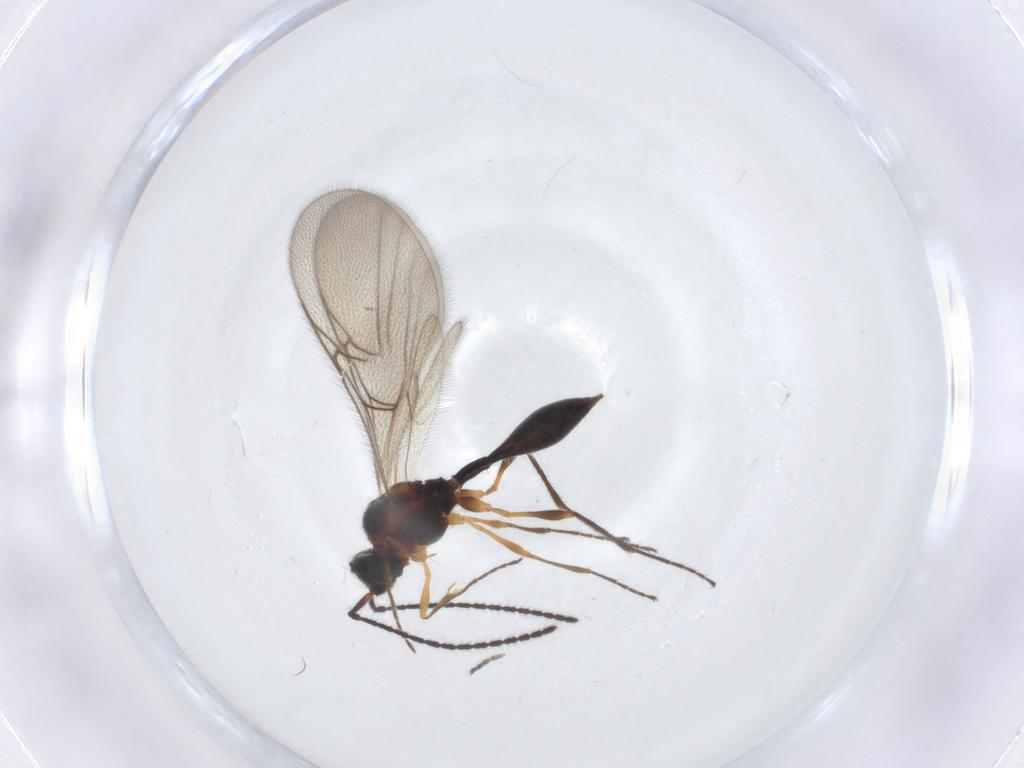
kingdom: Animalia
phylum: Arthropoda
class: Insecta
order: Hymenoptera
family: Diapriidae
